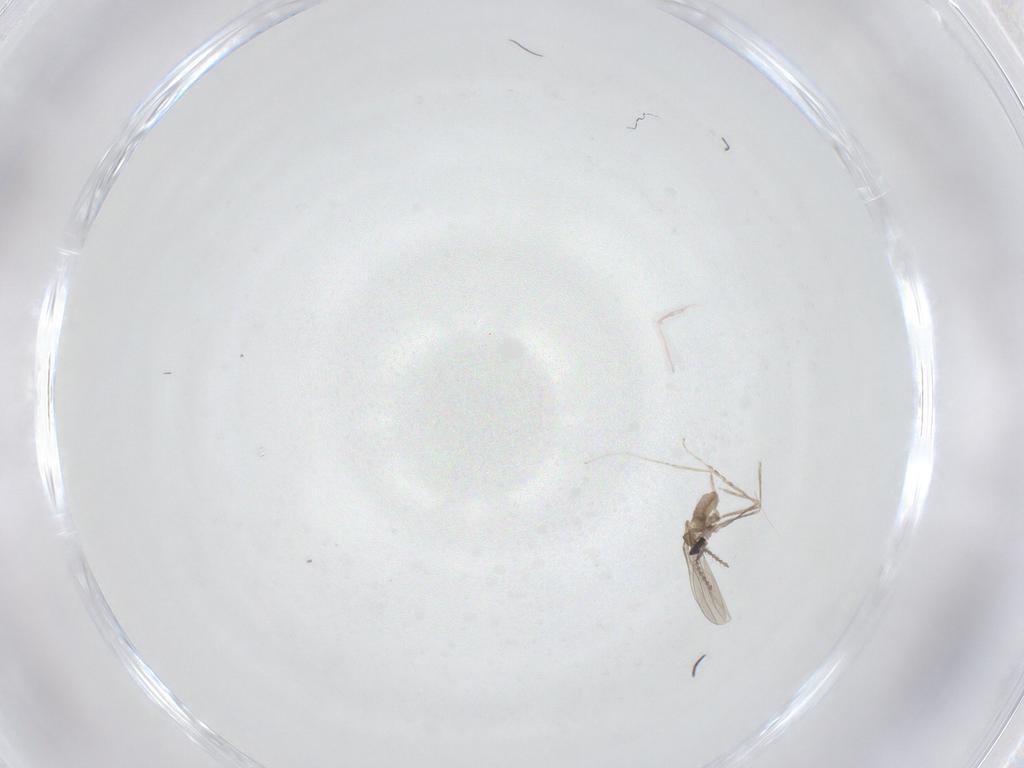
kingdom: Animalia
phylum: Arthropoda
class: Insecta
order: Diptera
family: Cecidomyiidae
